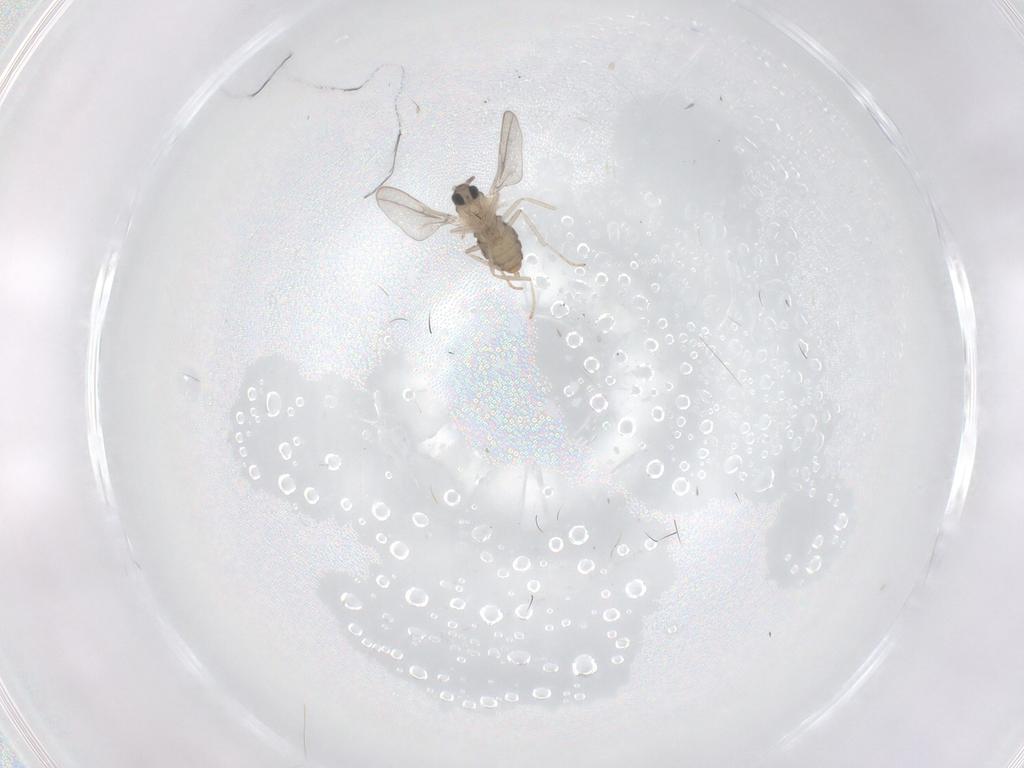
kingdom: Animalia
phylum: Arthropoda
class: Insecta
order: Diptera
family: Cecidomyiidae
